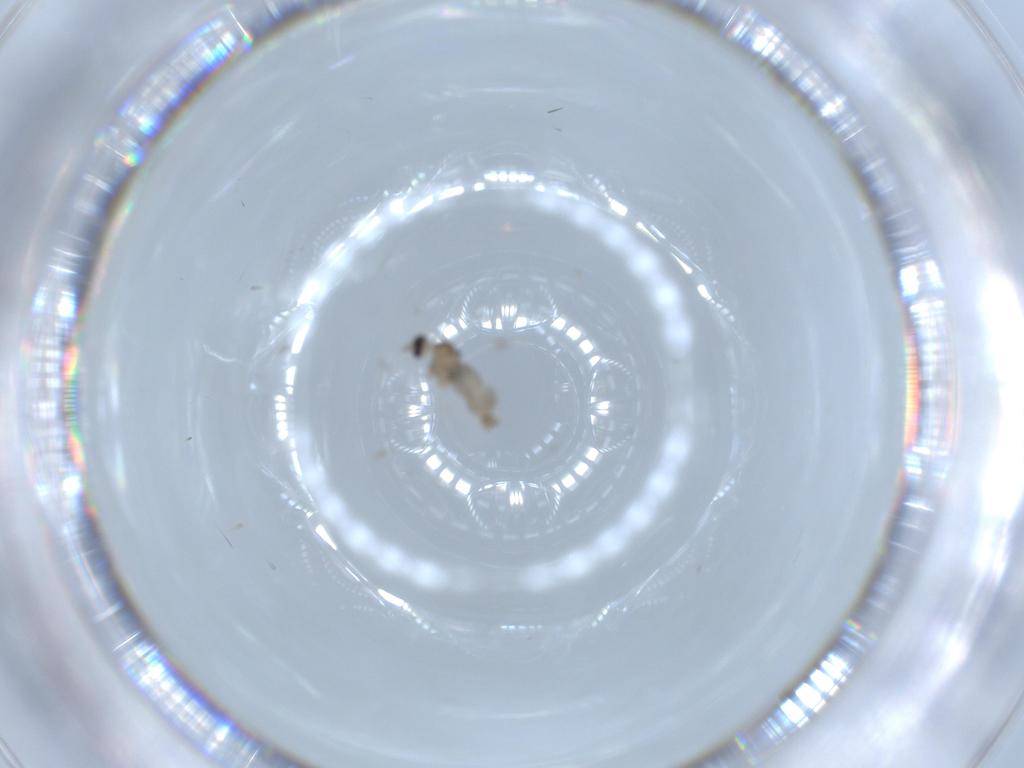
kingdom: Animalia
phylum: Arthropoda
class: Insecta
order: Diptera
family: Cecidomyiidae
